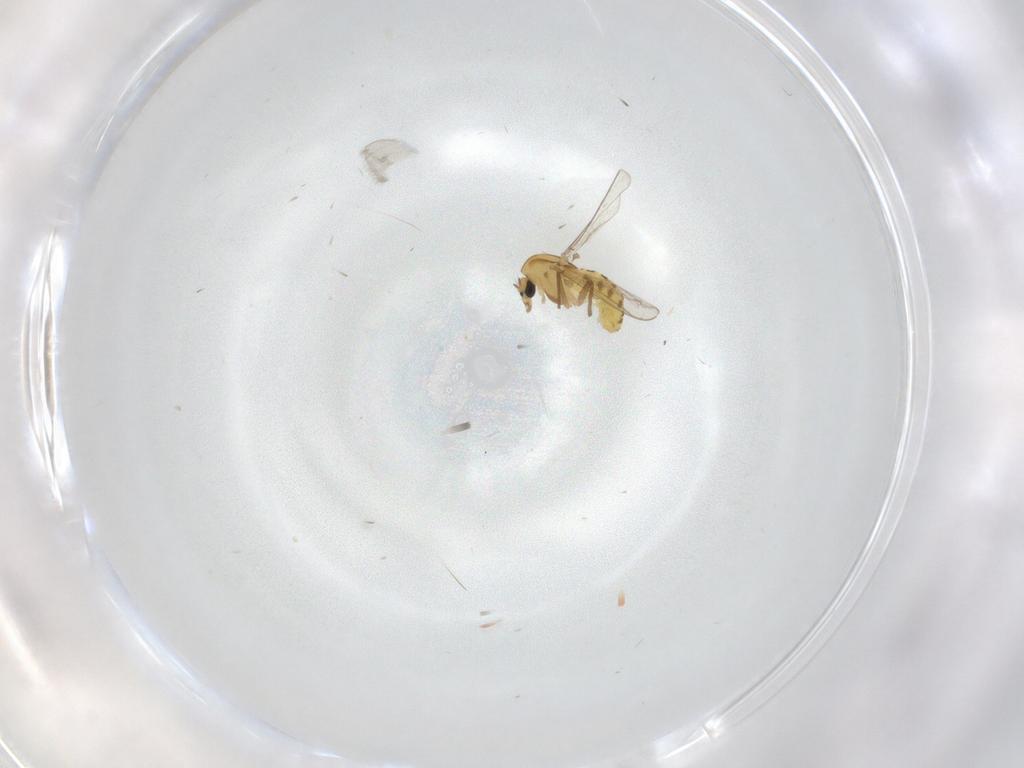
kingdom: Animalia
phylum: Arthropoda
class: Insecta
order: Diptera
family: Chironomidae
